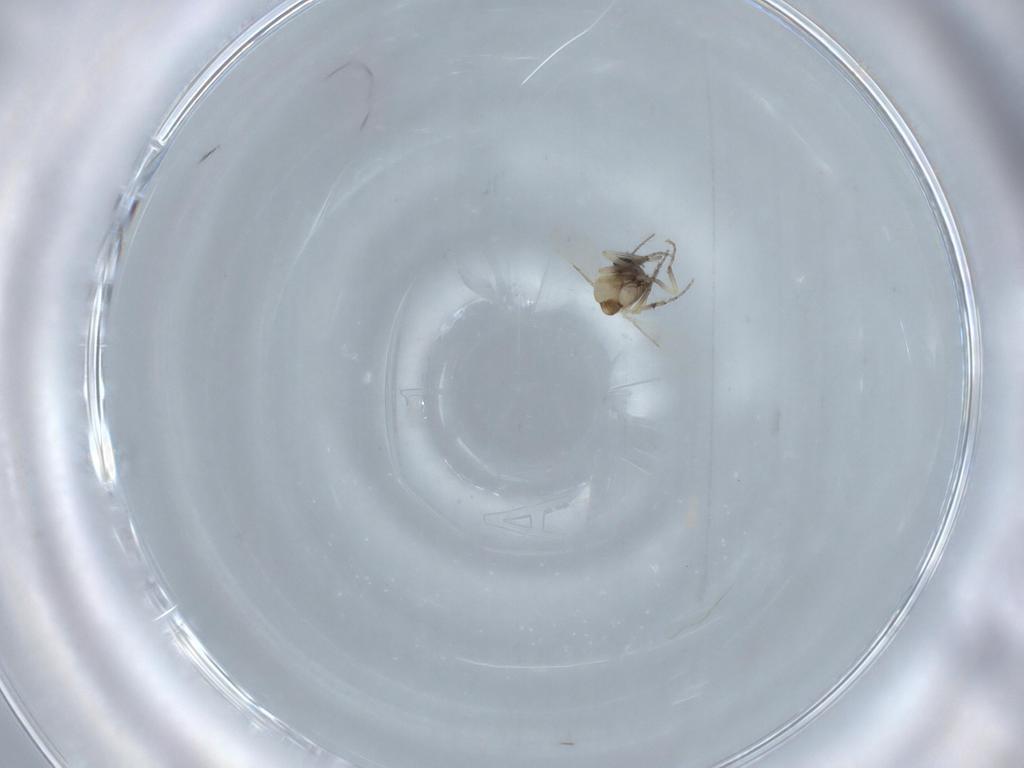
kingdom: Animalia
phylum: Arthropoda
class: Insecta
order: Diptera
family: Ceratopogonidae
